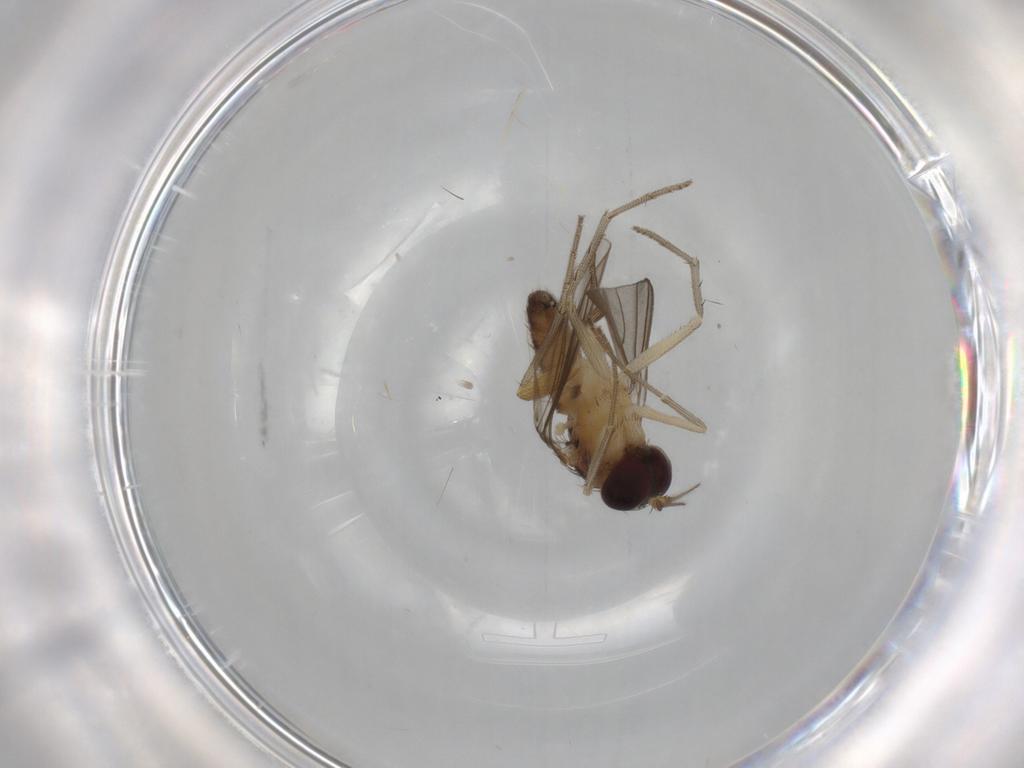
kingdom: Animalia
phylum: Arthropoda
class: Insecta
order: Diptera
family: Dolichopodidae
